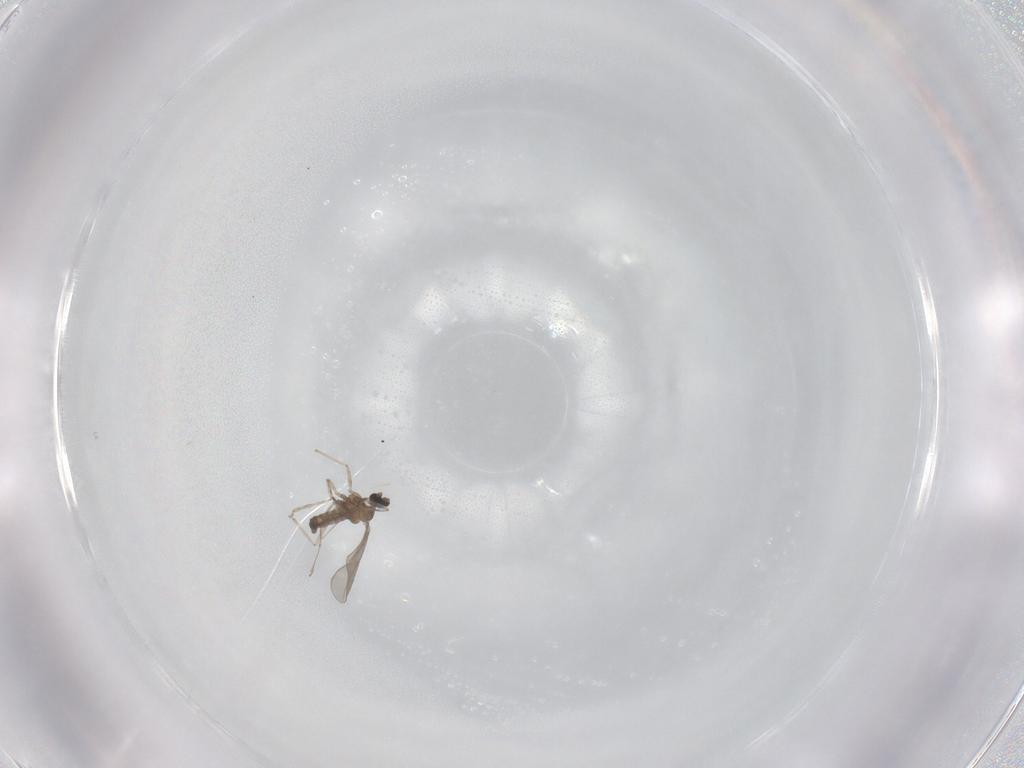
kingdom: Animalia
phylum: Arthropoda
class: Insecta
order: Diptera
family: Cecidomyiidae
